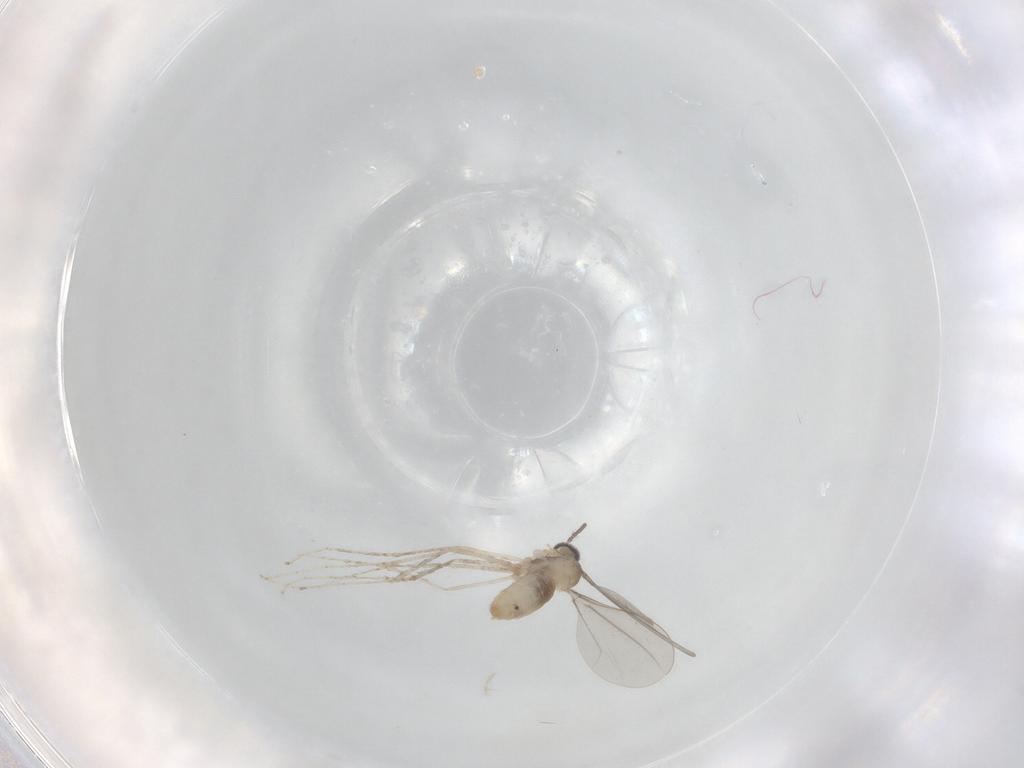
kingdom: Animalia
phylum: Arthropoda
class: Insecta
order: Diptera
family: Cecidomyiidae
